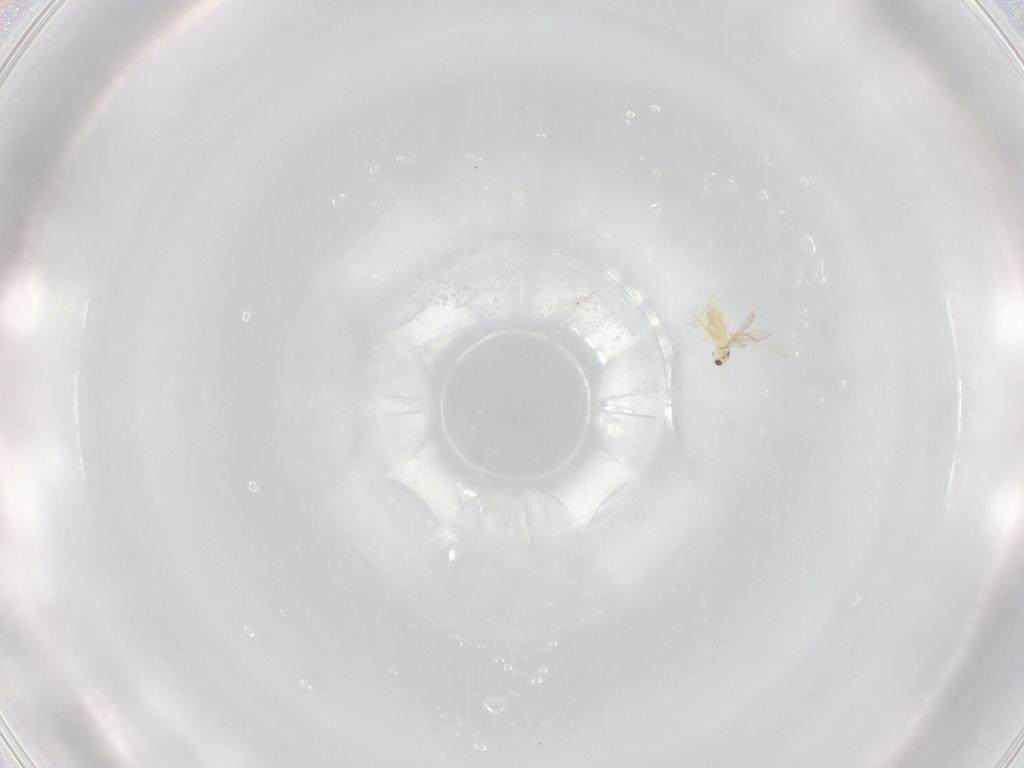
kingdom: Animalia
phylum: Arthropoda
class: Insecta
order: Hymenoptera
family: Mymaridae
